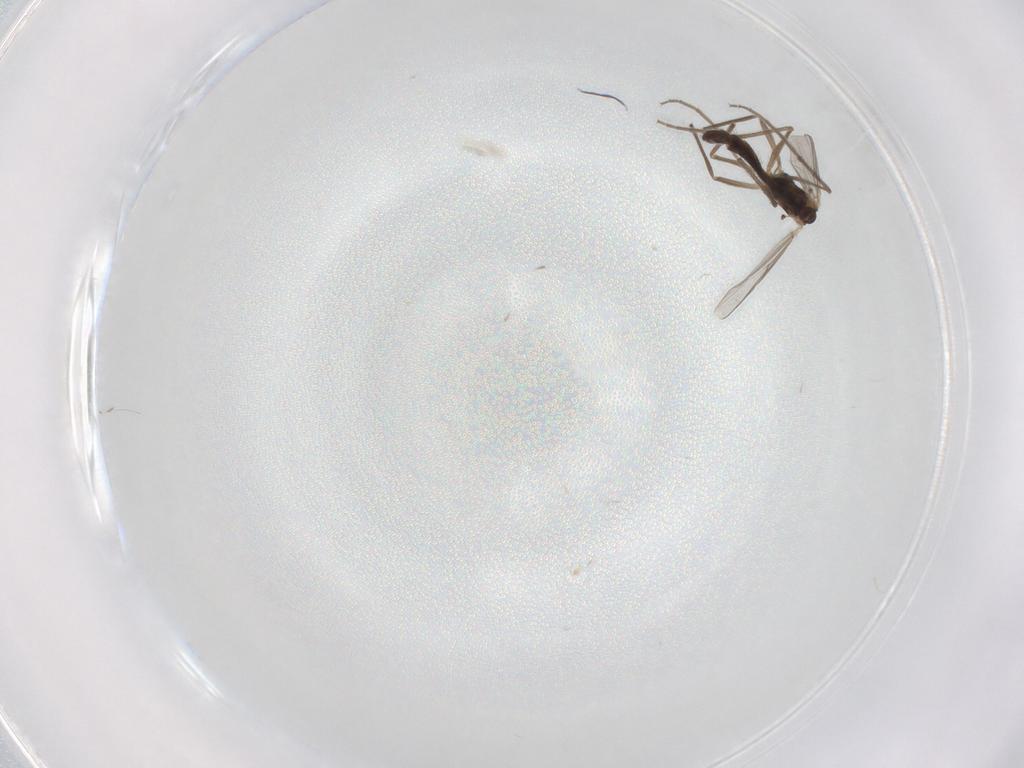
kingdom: Animalia
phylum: Arthropoda
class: Insecta
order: Diptera
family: Chironomidae
